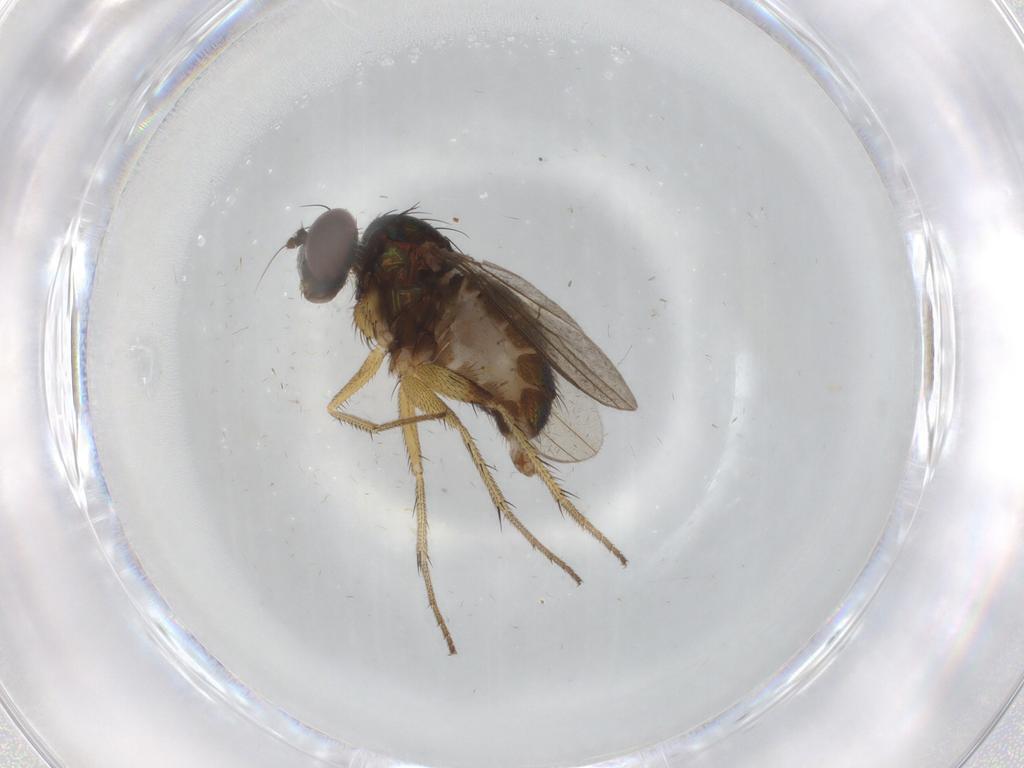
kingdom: Animalia
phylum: Arthropoda
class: Insecta
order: Diptera
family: Dolichopodidae
